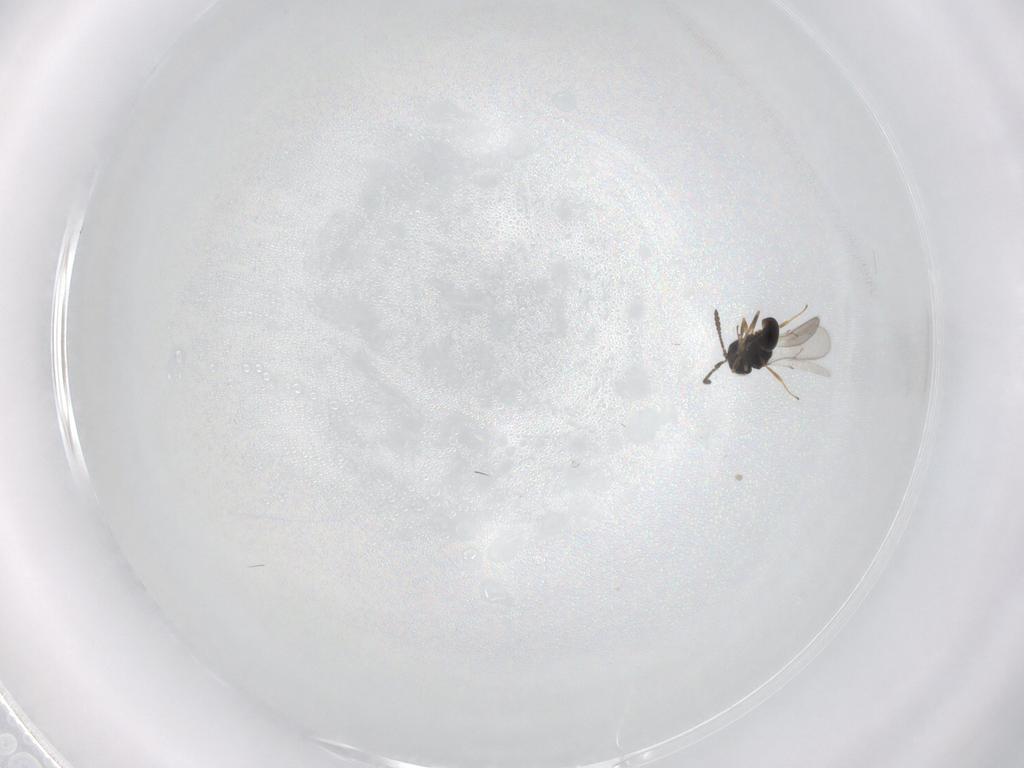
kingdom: Animalia
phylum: Arthropoda
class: Insecta
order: Hymenoptera
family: Scelionidae
